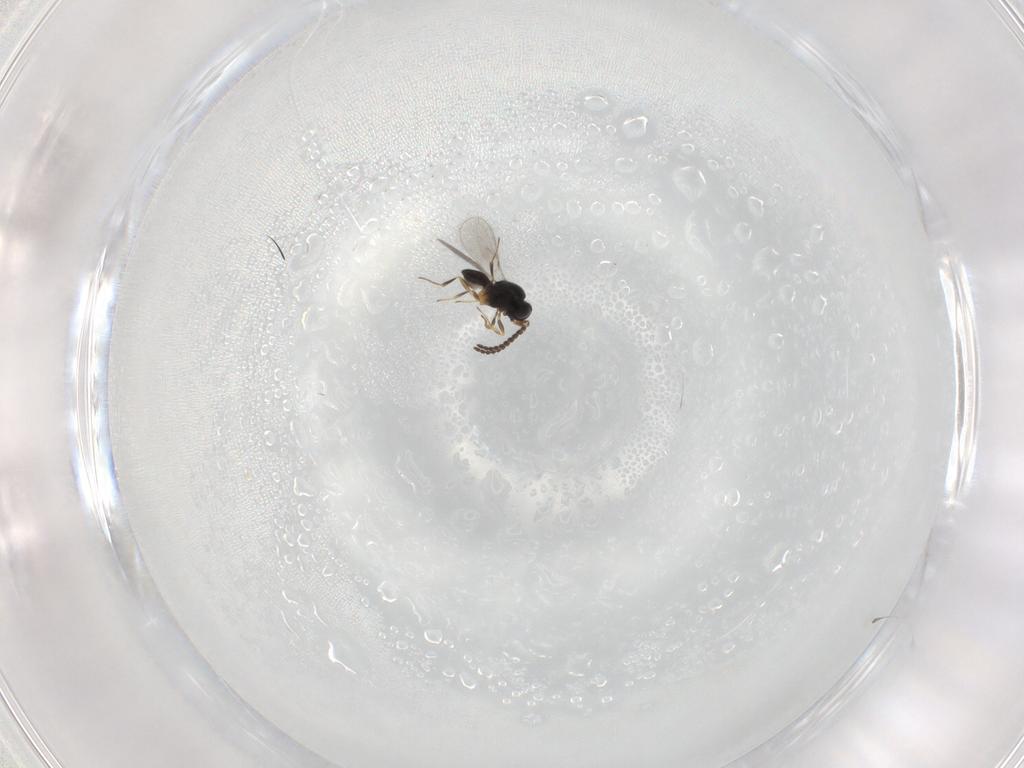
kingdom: Animalia
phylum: Arthropoda
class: Insecta
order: Hymenoptera
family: Scelionidae
